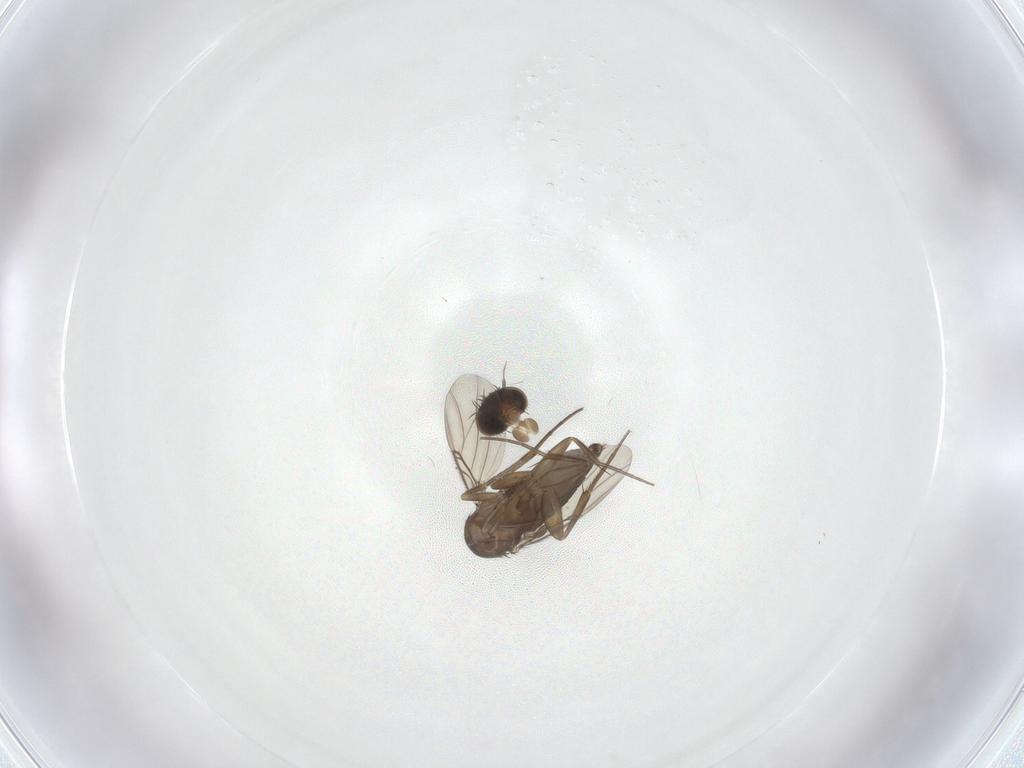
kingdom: Animalia
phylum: Arthropoda
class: Insecta
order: Diptera
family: Phoridae
